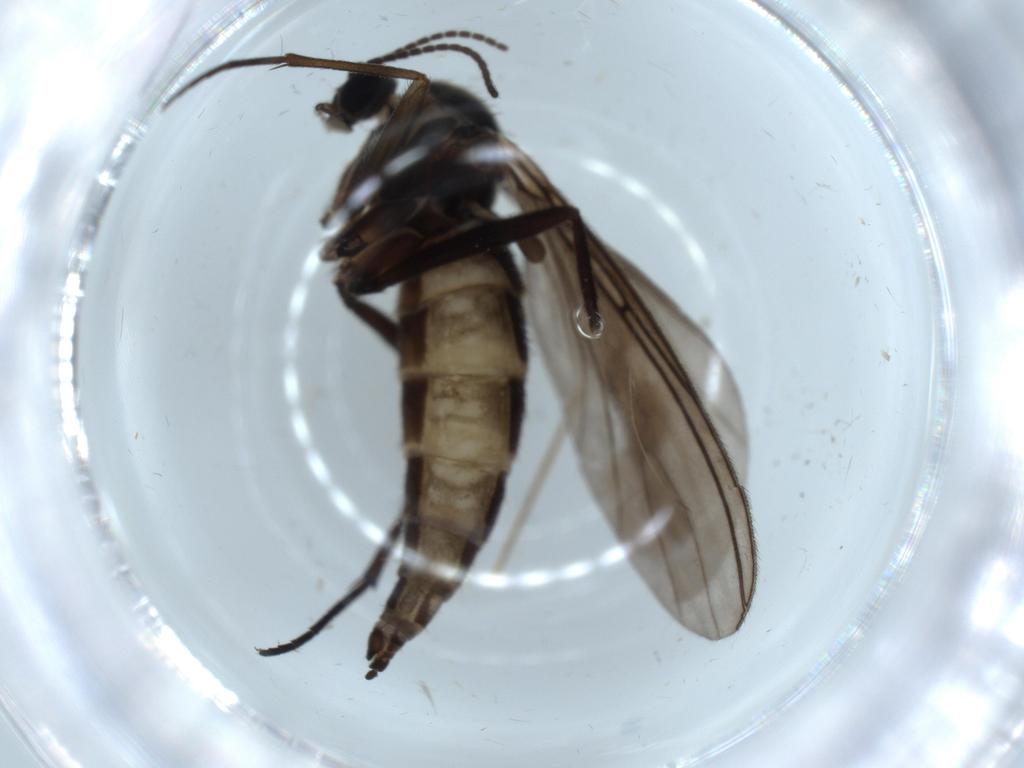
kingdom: Animalia
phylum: Arthropoda
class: Insecta
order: Diptera
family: Sciaridae
